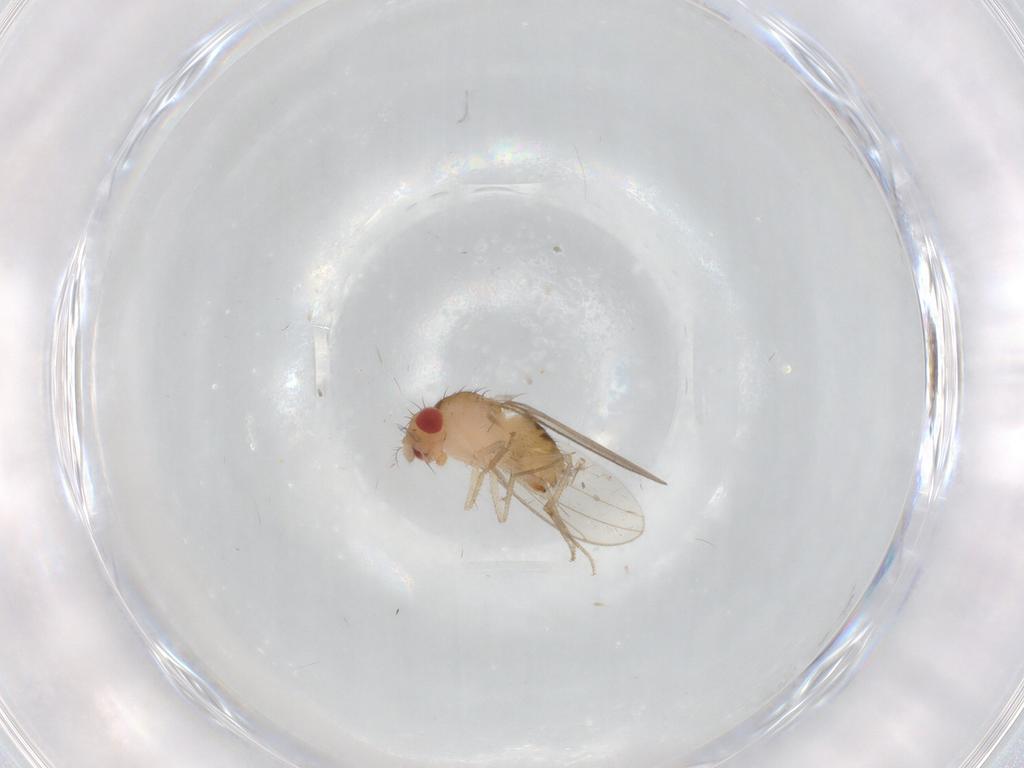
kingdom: Animalia
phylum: Arthropoda
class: Insecta
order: Diptera
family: Drosophilidae
